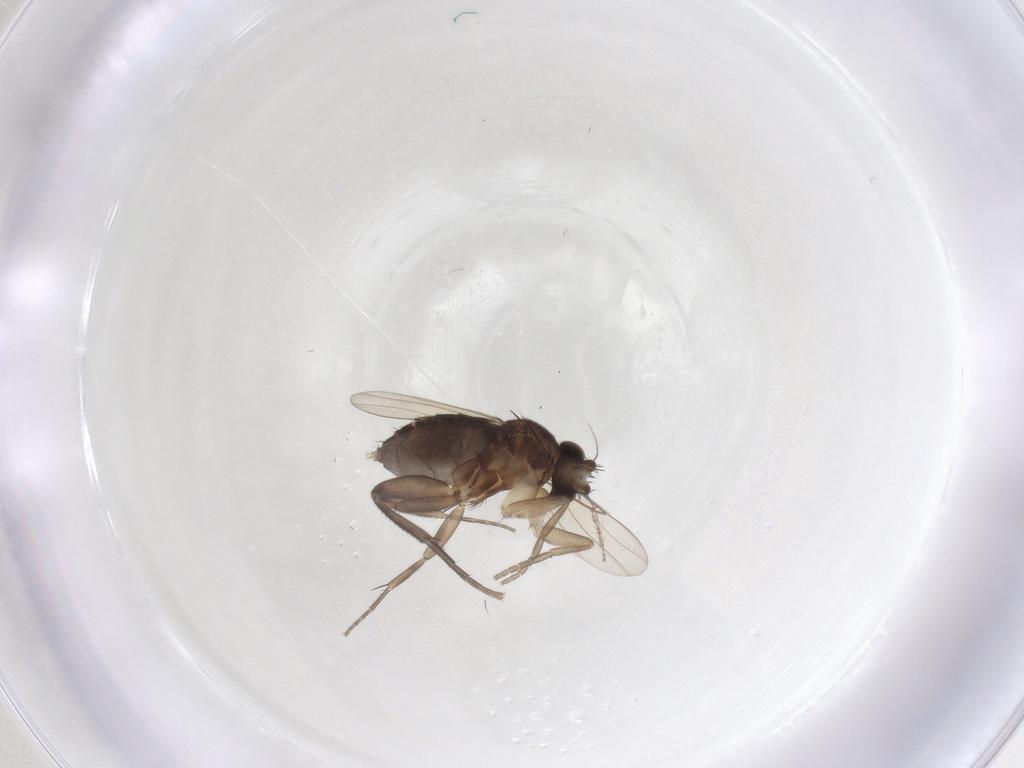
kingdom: Animalia
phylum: Arthropoda
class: Insecta
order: Diptera
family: Phoridae
